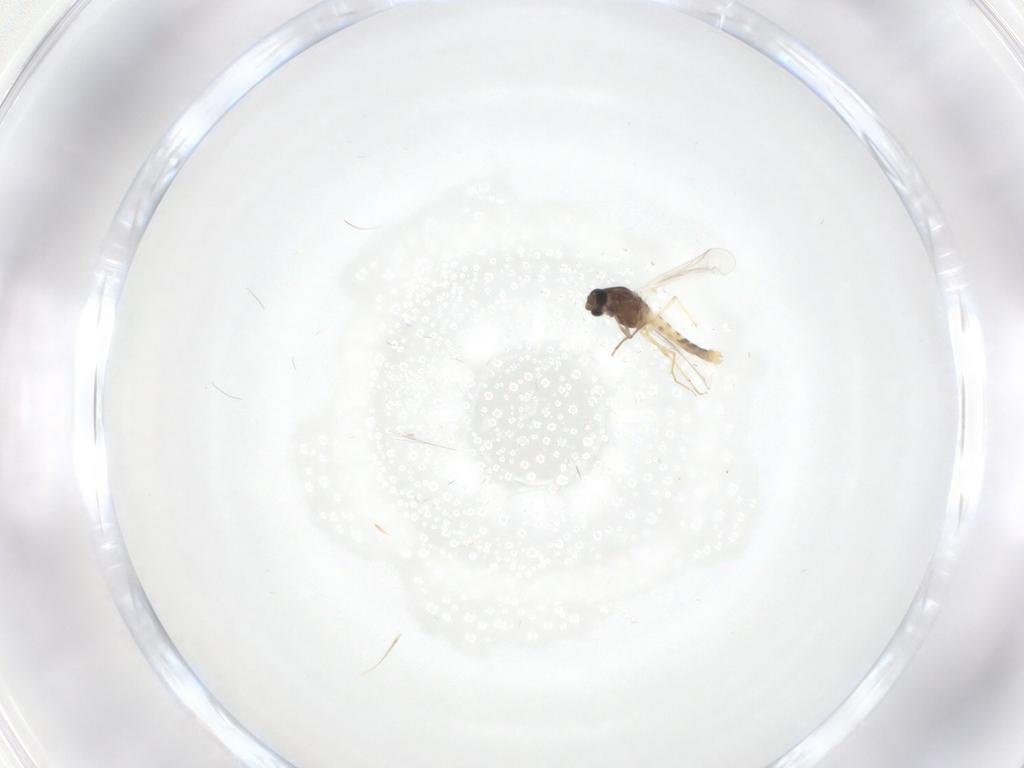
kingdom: Animalia
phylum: Arthropoda
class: Insecta
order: Diptera
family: Chironomidae
